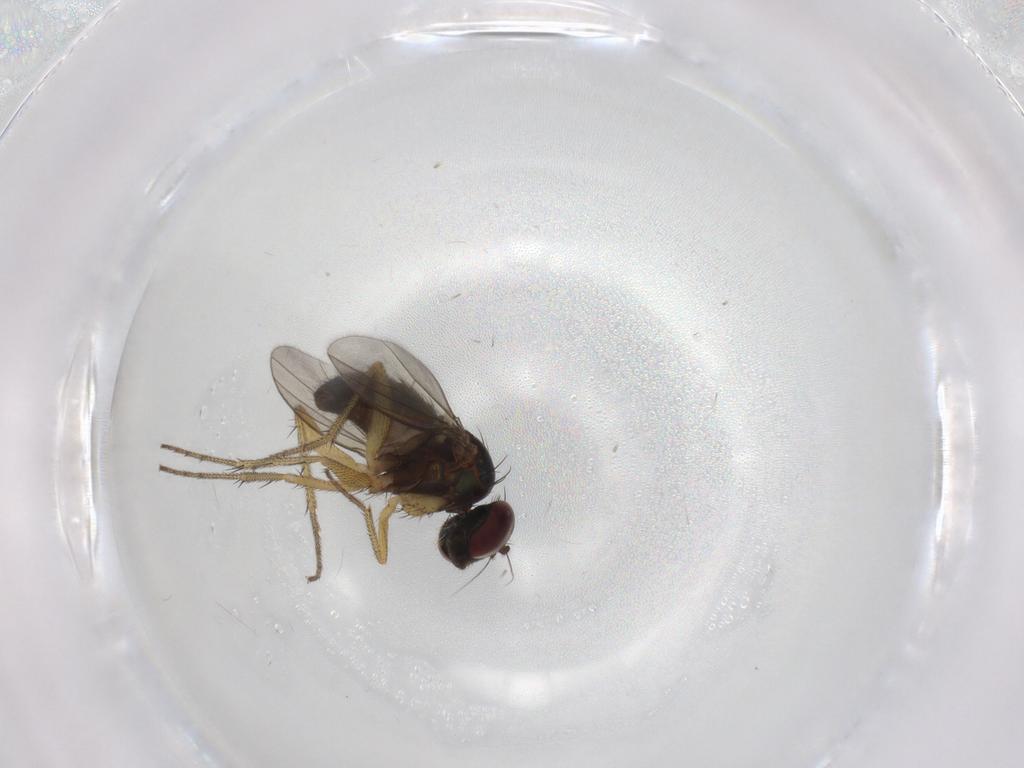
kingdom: Animalia
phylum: Arthropoda
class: Insecta
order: Diptera
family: Dolichopodidae
